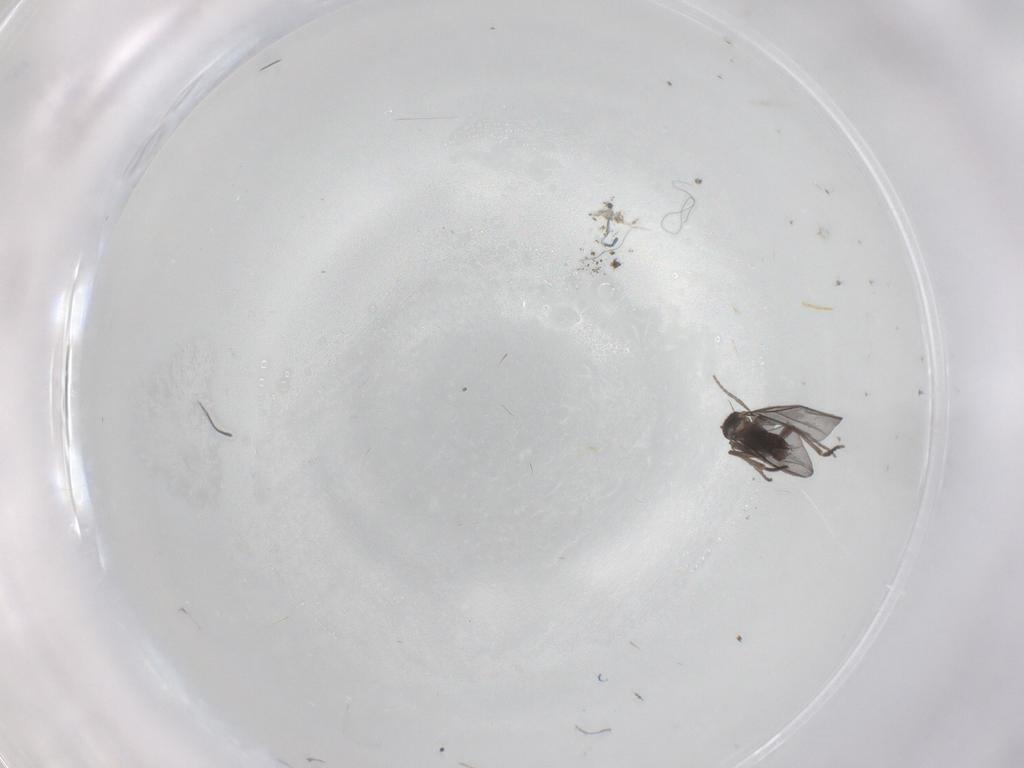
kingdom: Animalia
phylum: Arthropoda
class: Insecta
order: Diptera
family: Phoridae
